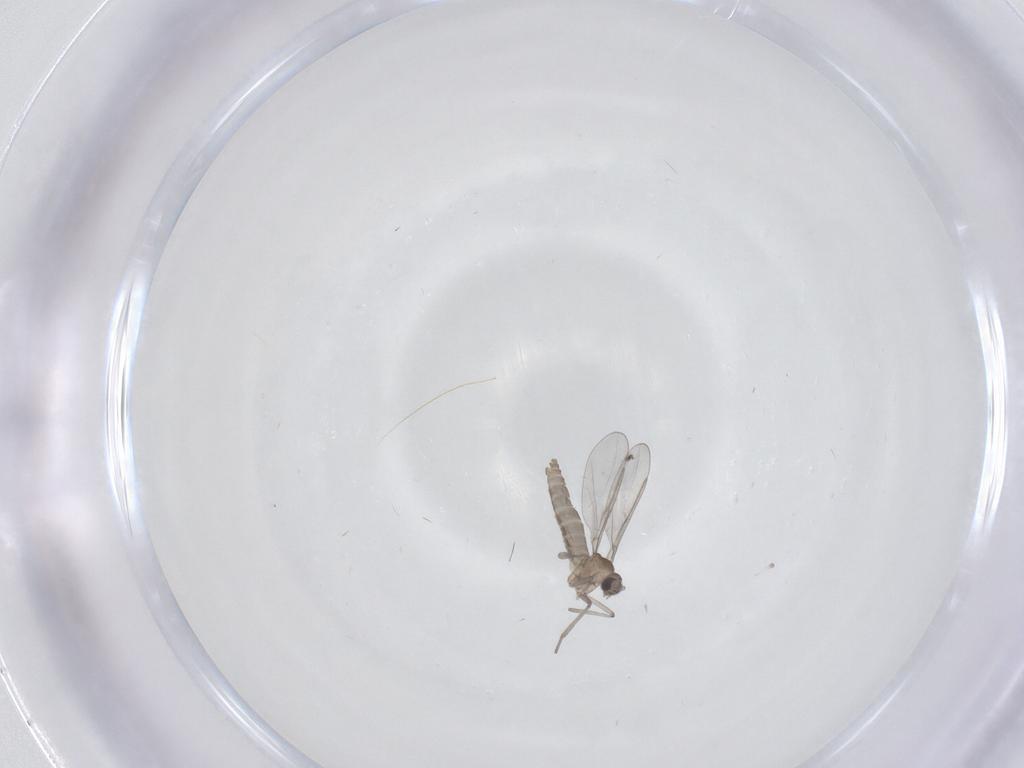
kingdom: Animalia
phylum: Arthropoda
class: Insecta
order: Diptera
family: Cecidomyiidae
